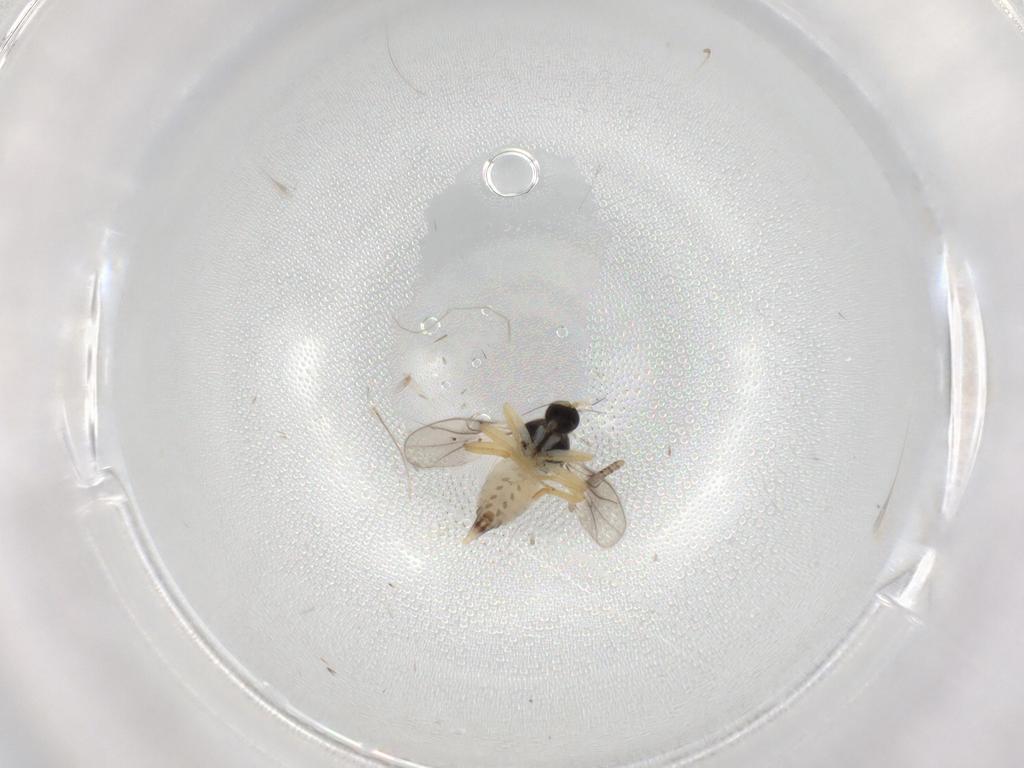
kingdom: Animalia
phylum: Arthropoda
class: Insecta
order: Diptera
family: Hybotidae
